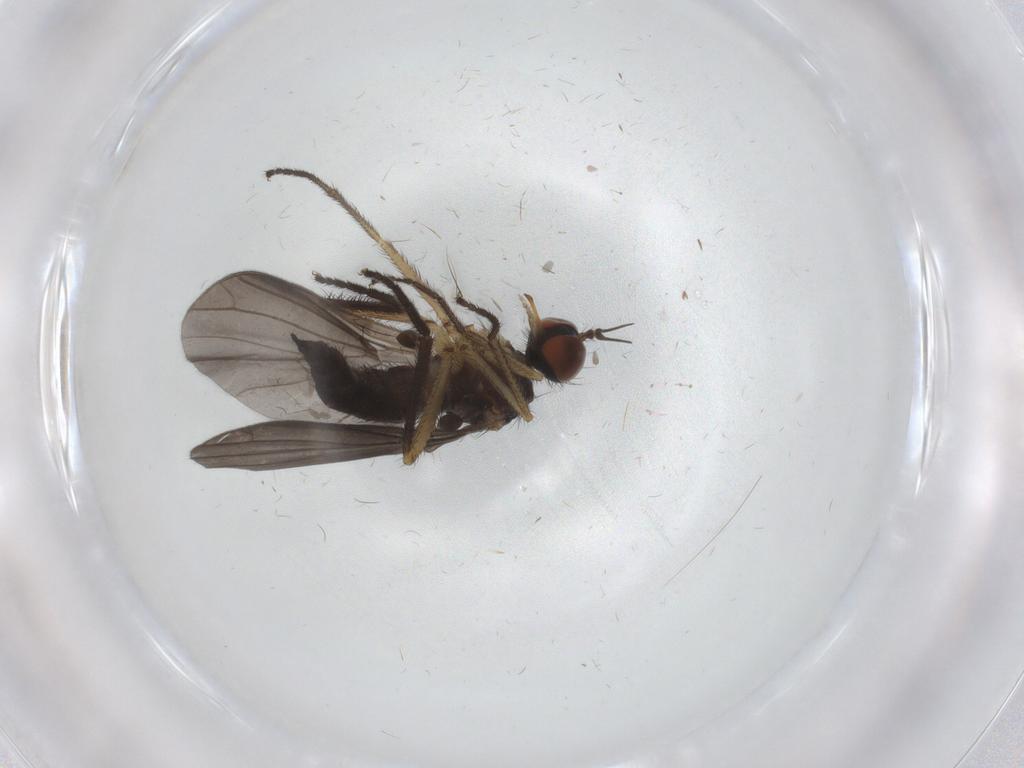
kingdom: Animalia
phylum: Arthropoda
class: Insecta
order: Diptera
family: Empididae
